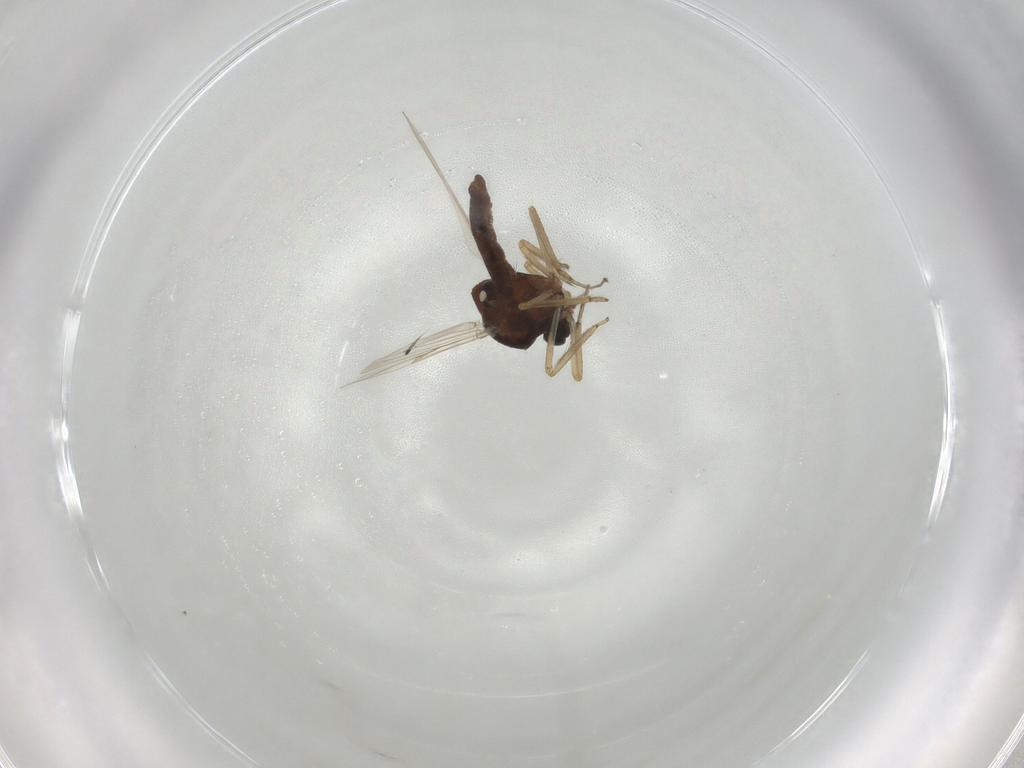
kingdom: Animalia
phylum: Arthropoda
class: Insecta
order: Diptera
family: Ceratopogonidae
